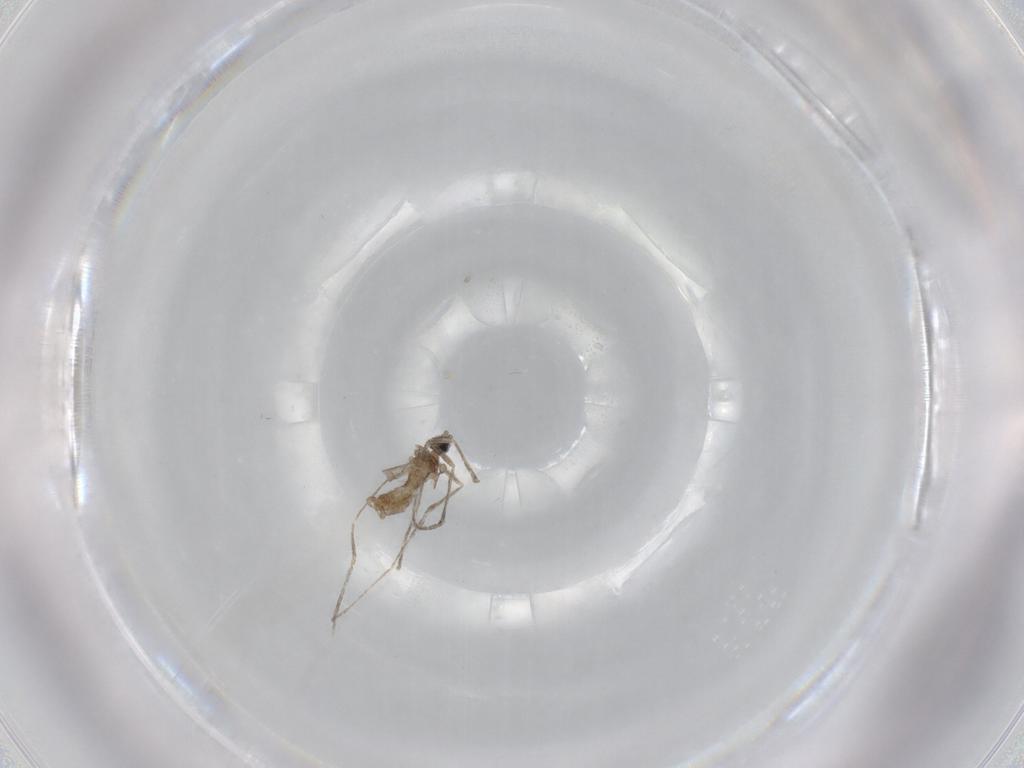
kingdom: Animalia
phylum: Arthropoda
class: Insecta
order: Diptera
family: Cecidomyiidae
